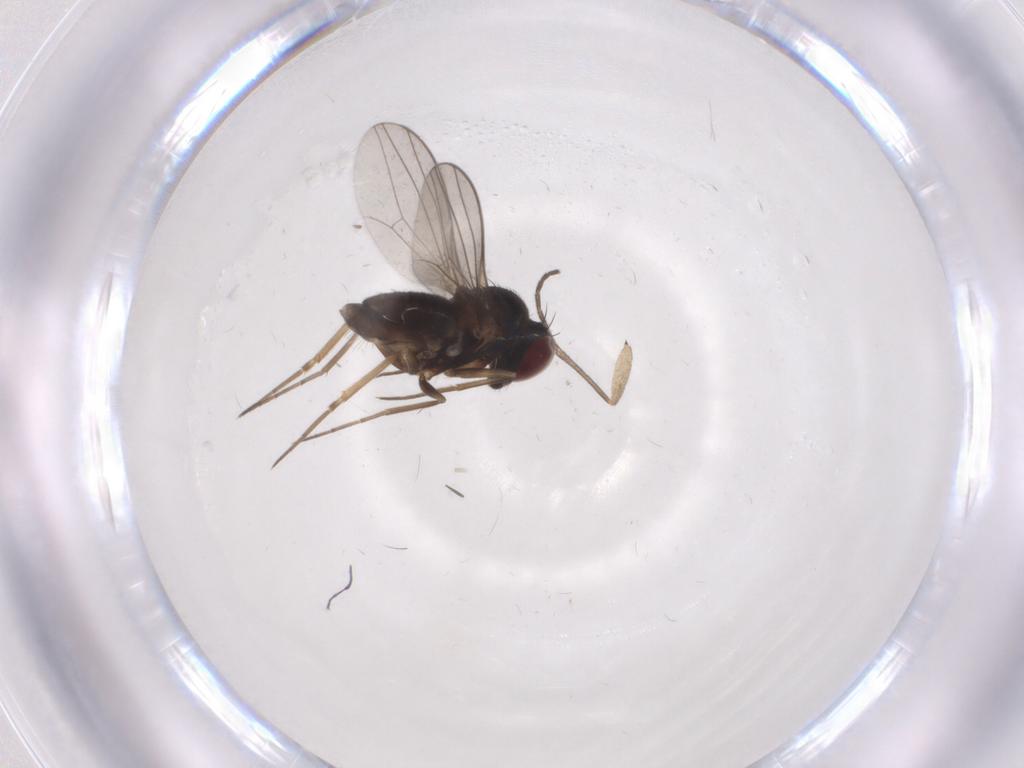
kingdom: Animalia
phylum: Arthropoda
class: Insecta
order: Diptera
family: Dolichopodidae
